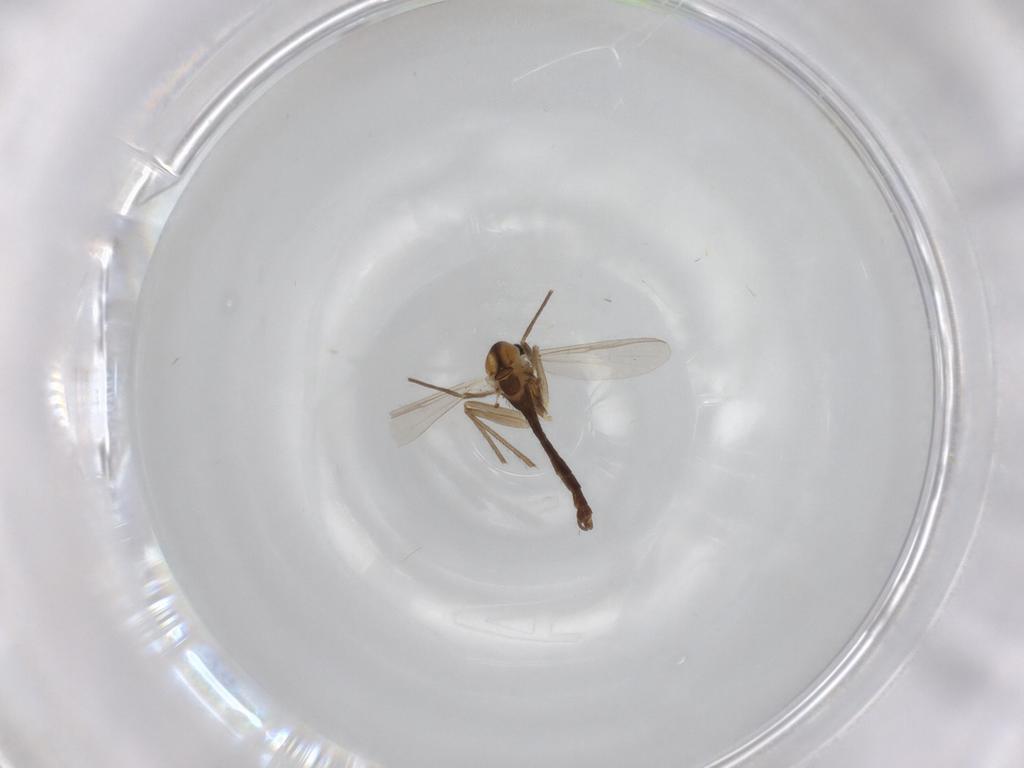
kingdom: Animalia
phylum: Arthropoda
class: Insecta
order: Diptera
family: Chironomidae
